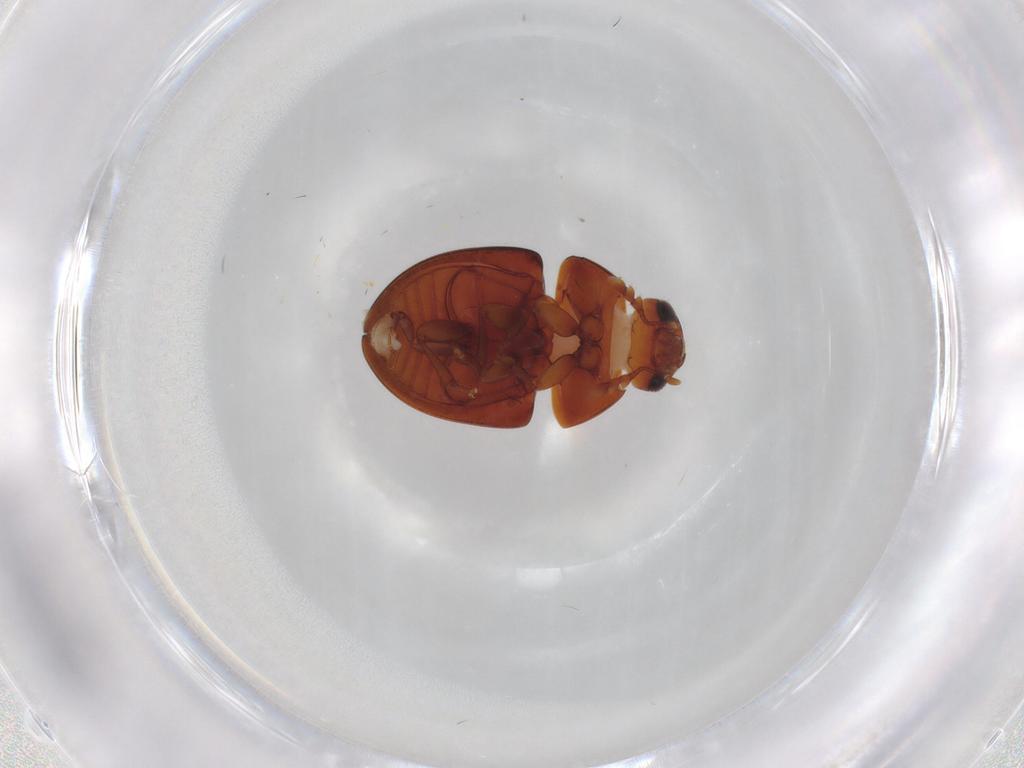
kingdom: Animalia
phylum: Arthropoda
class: Insecta
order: Coleoptera
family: Phalacridae
